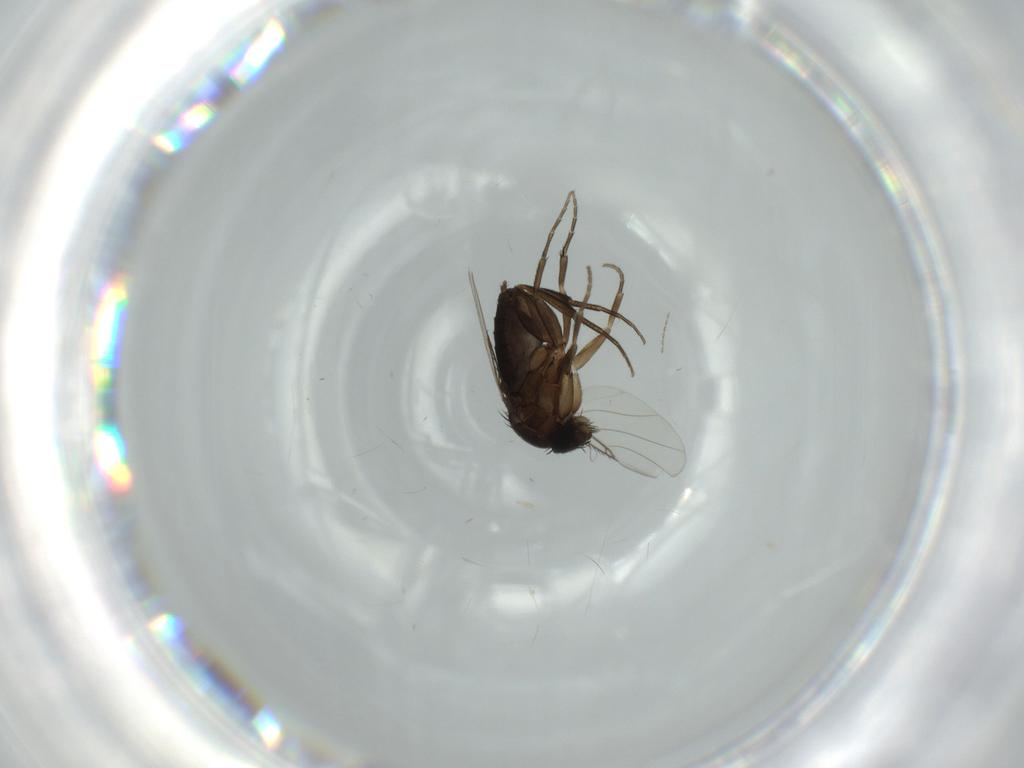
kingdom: Animalia
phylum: Arthropoda
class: Insecta
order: Diptera
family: Phoridae
